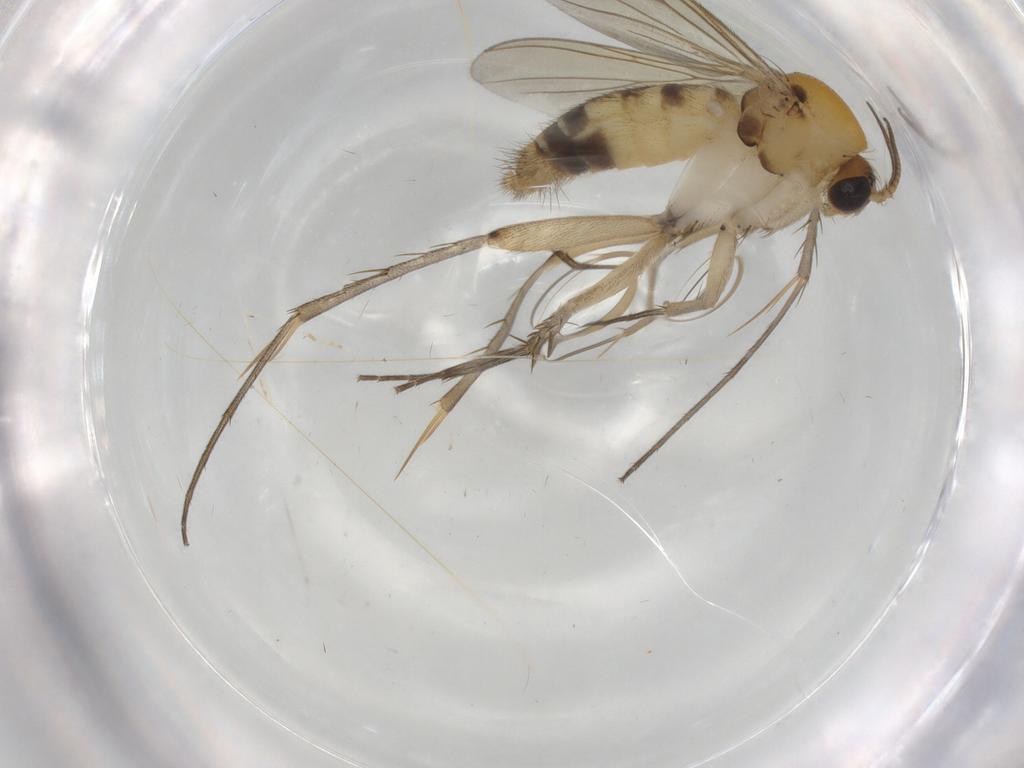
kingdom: Animalia
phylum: Arthropoda
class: Insecta
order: Diptera
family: Mycetophilidae
